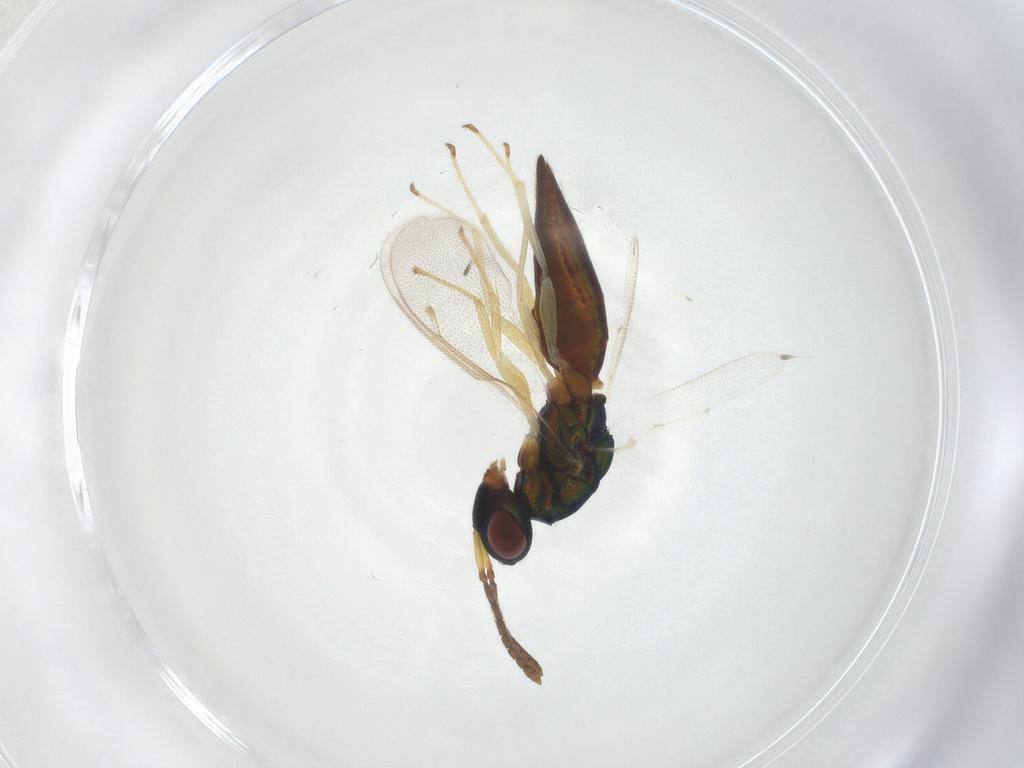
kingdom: Animalia
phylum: Arthropoda
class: Insecta
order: Hymenoptera
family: Pteromalidae
